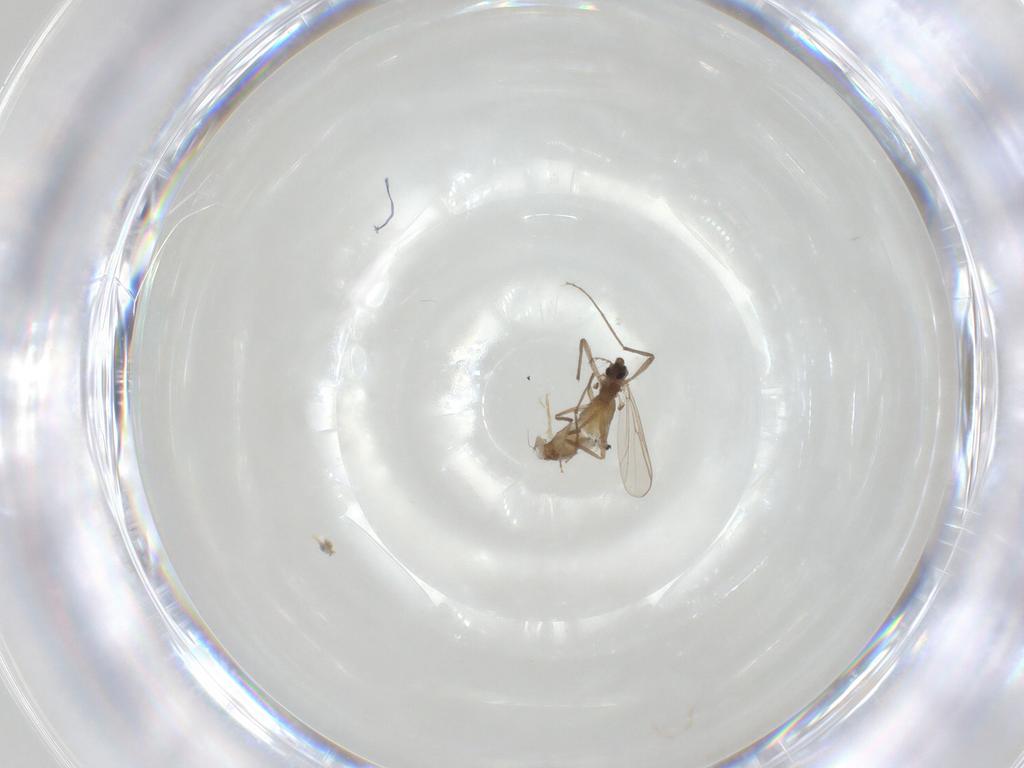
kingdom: Animalia
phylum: Arthropoda
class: Insecta
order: Diptera
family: Chironomidae
